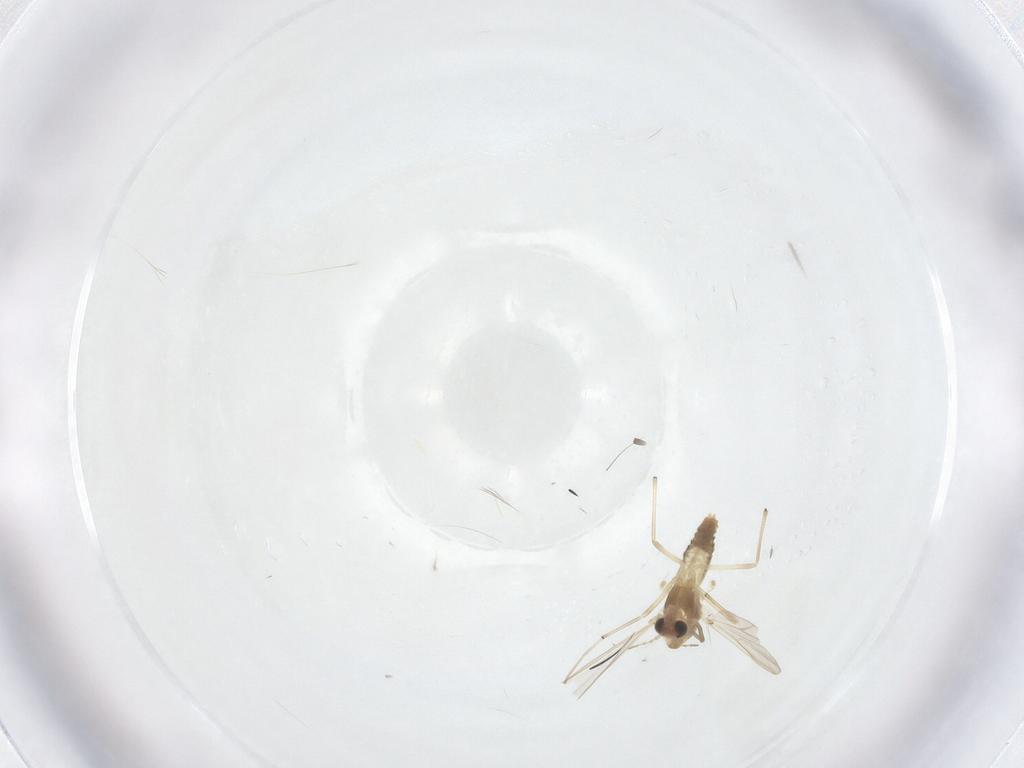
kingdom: Animalia
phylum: Arthropoda
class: Insecta
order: Diptera
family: Chironomidae
